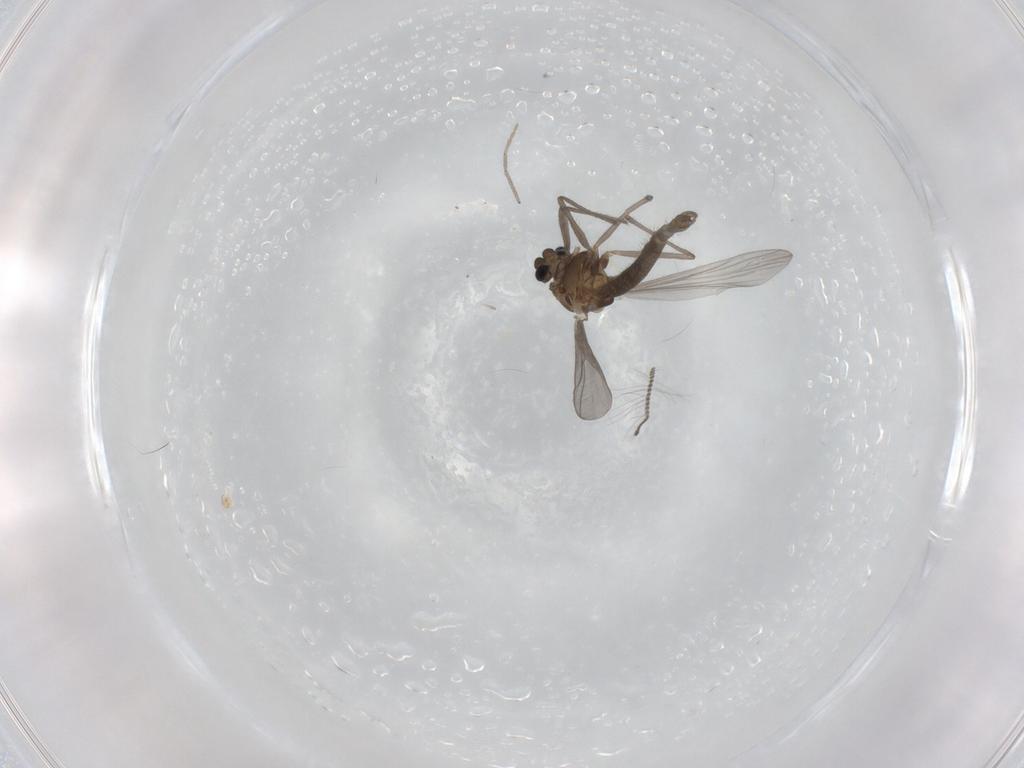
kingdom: Animalia
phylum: Arthropoda
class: Insecta
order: Diptera
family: Chironomidae
